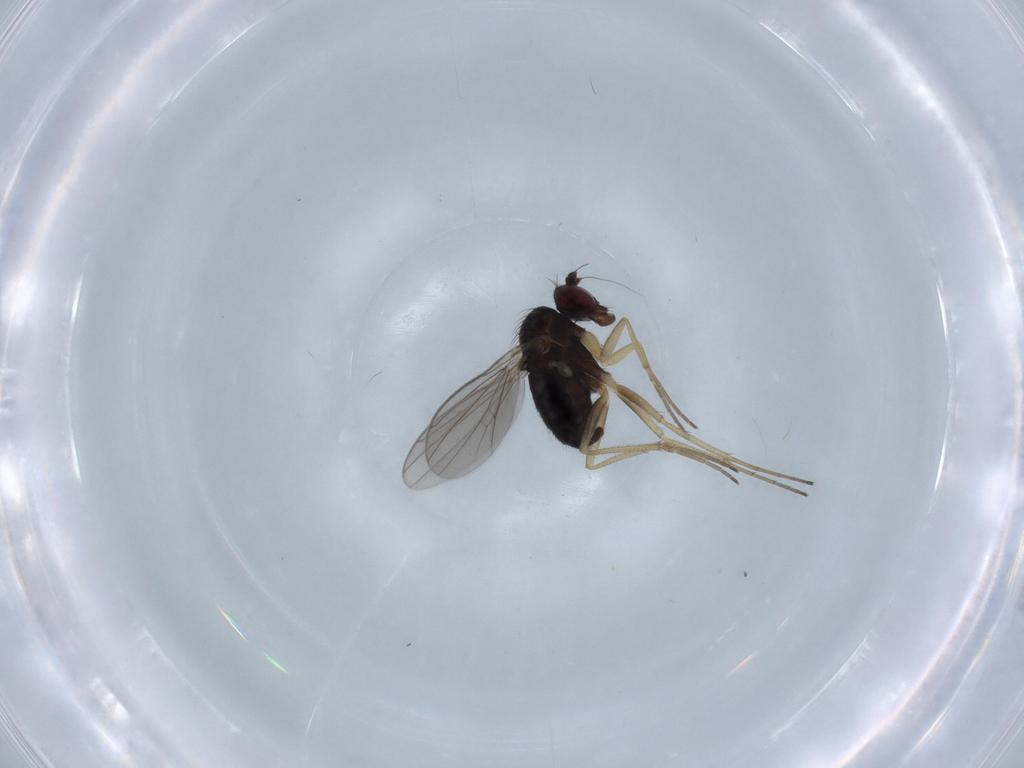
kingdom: Animalia
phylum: Arthropoda
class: Insecta
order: Diptera
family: Dolichopodidae
